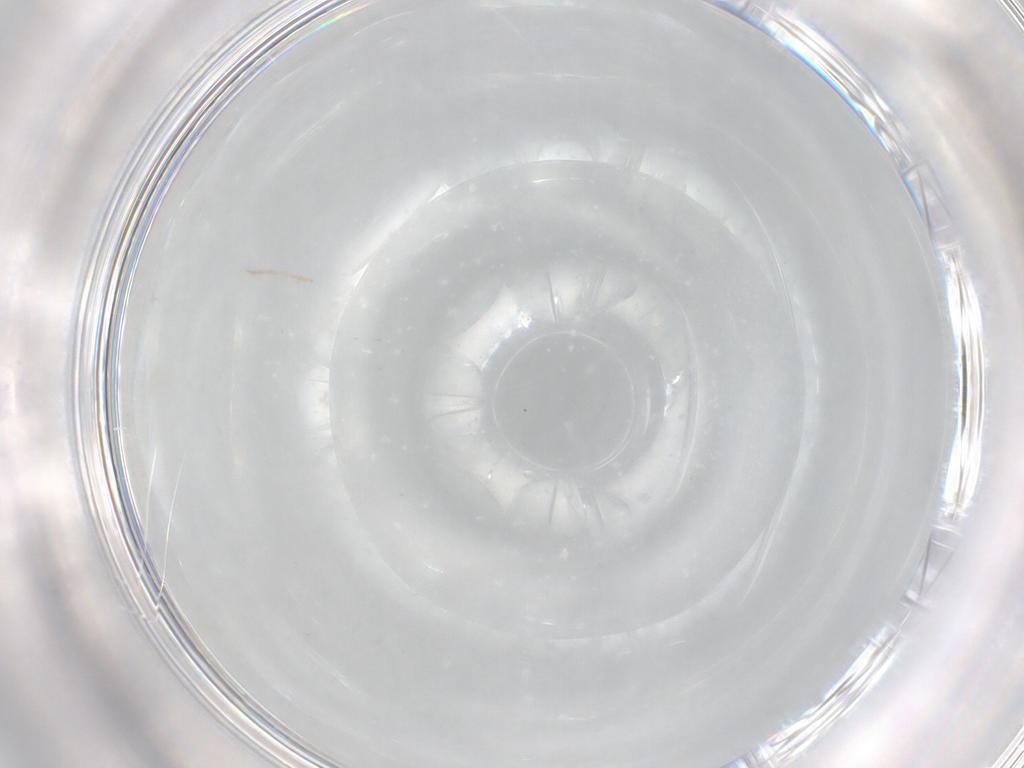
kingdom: Animalia
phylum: Arthropoda
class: Insecta
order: Diptera
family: Chironomidae
